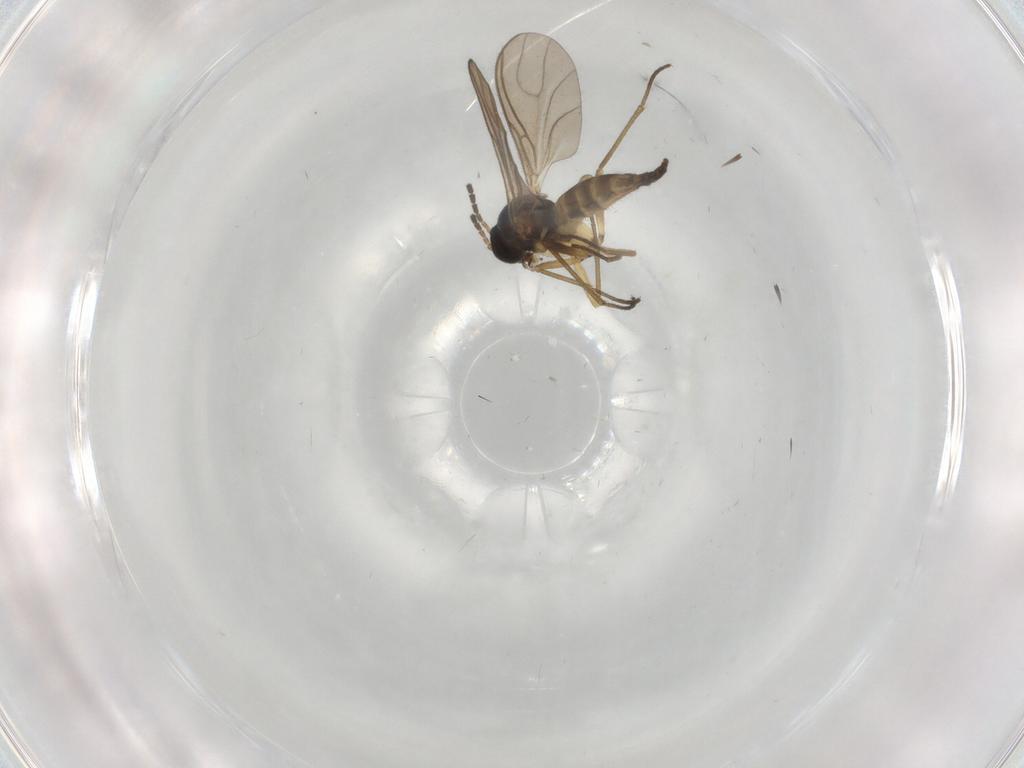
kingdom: Animalia
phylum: Arthropoda
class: Insecta
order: Diptera
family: Sciaridae
